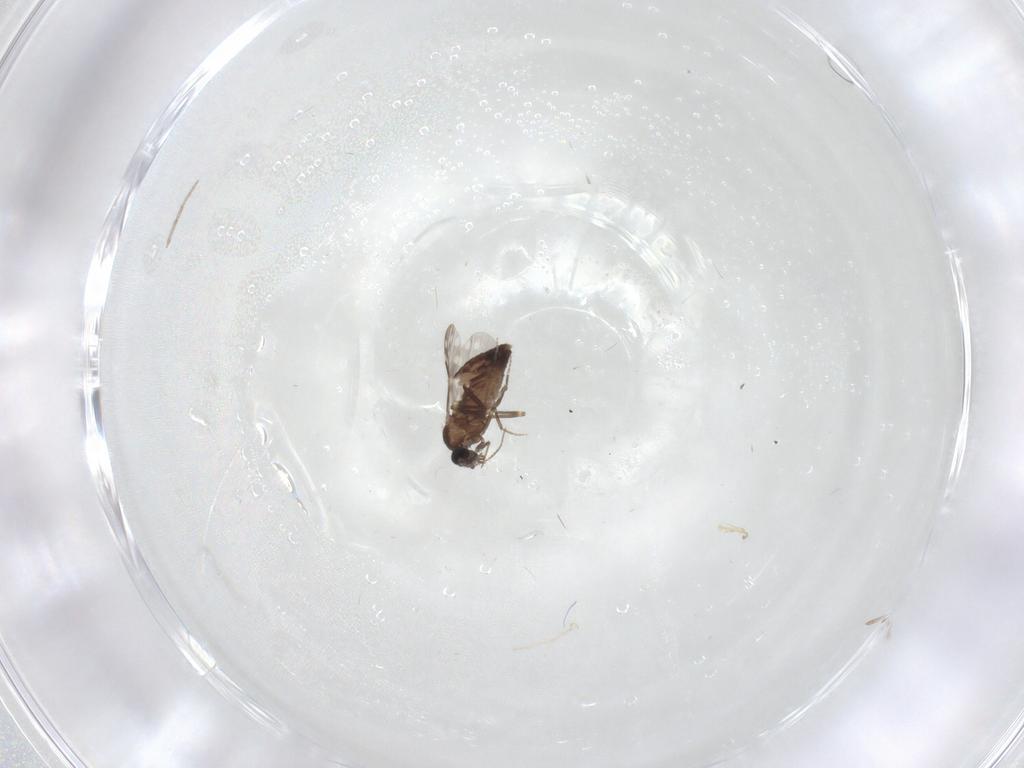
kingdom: Animalia
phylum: Arthropoda
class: Insecta
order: Diptera
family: Chironomidae
